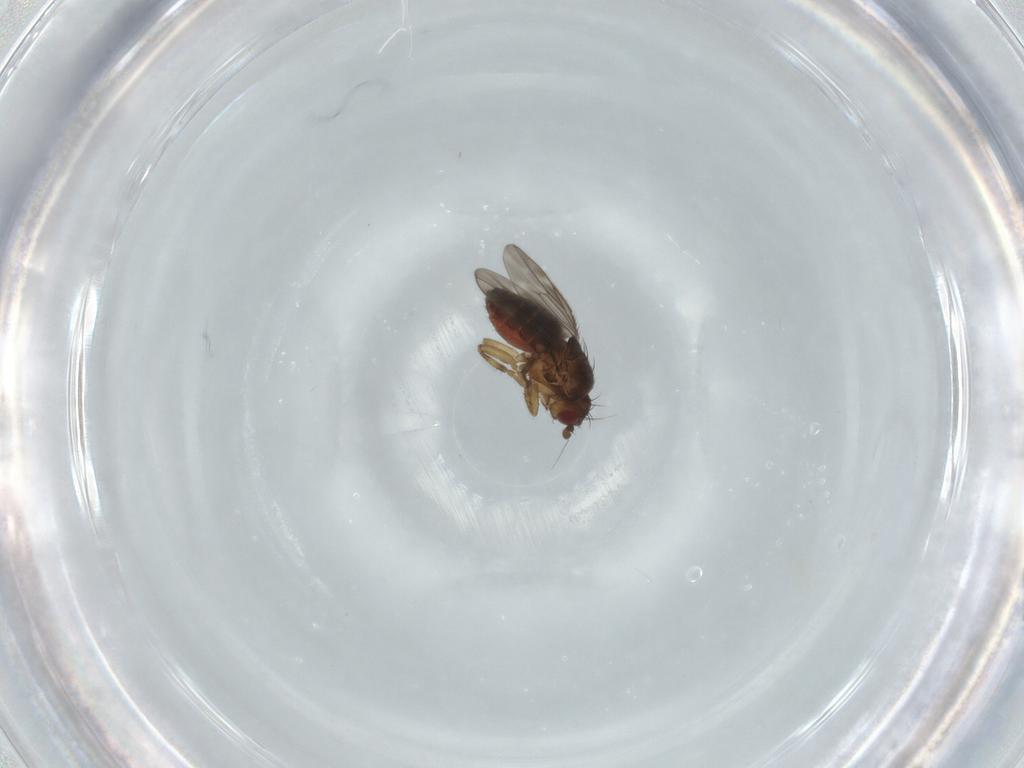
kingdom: Animalia
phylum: Arthropoda
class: Insecta
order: Diptera
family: Sphaeroceridae
